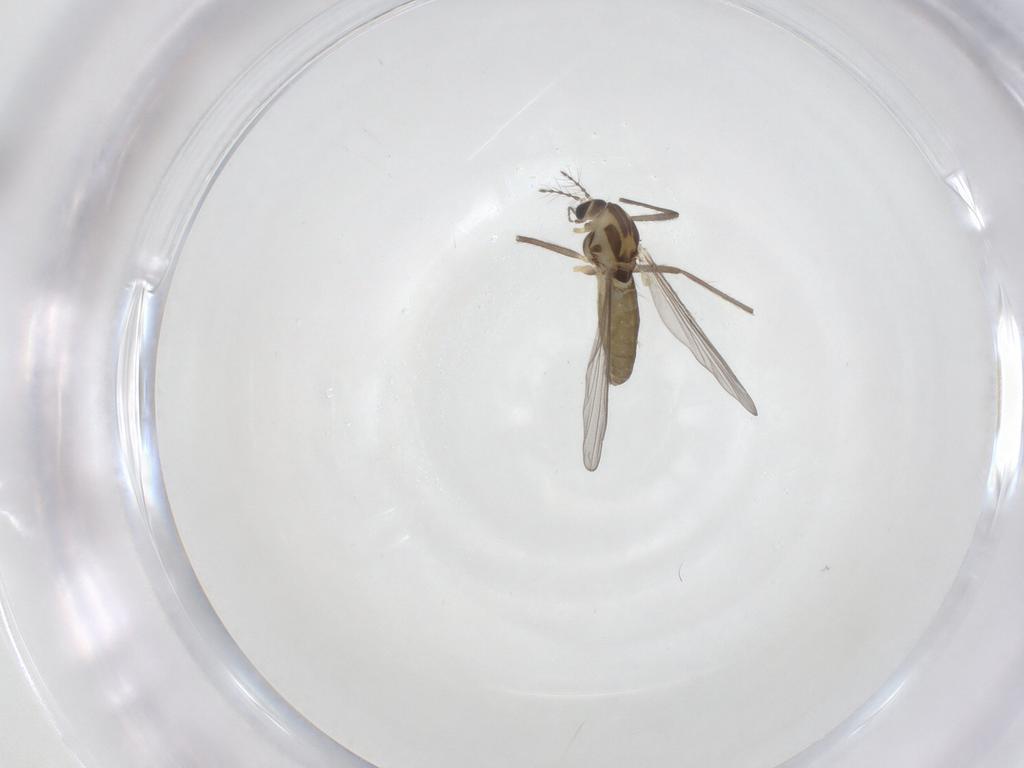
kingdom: Animalia
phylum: Arthropoda
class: Insecta
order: Diptera
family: Chironomidae
